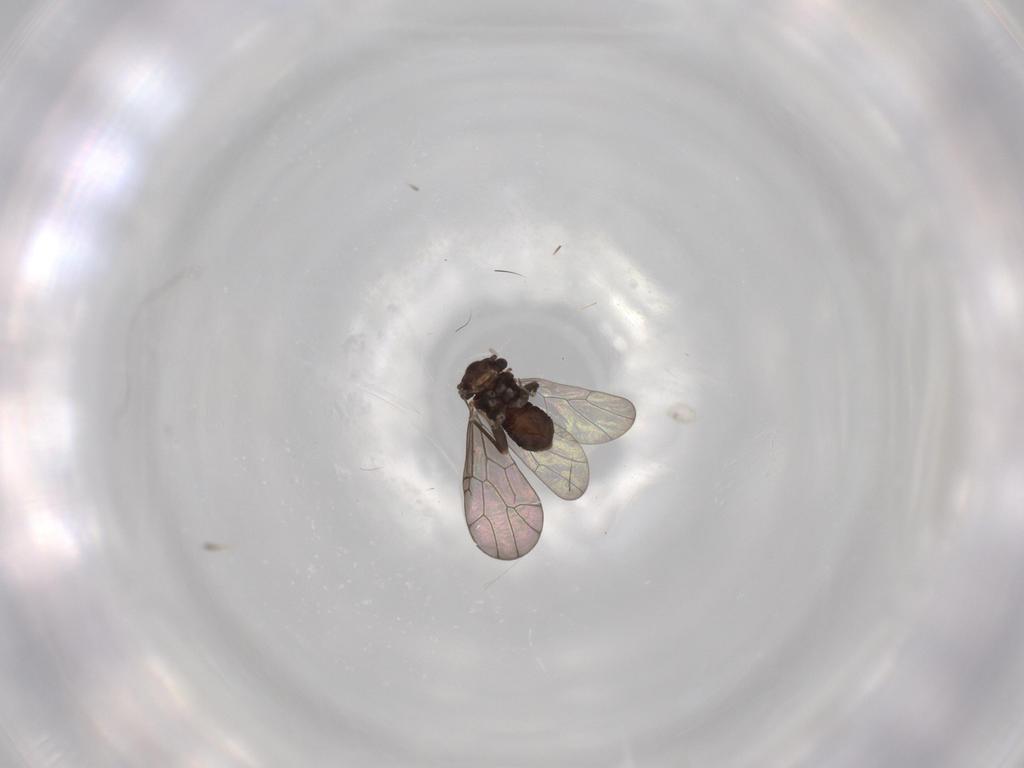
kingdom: Animalia
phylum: Arthropoda
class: Insecta
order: Psocodea
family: Lepidopsocidae
